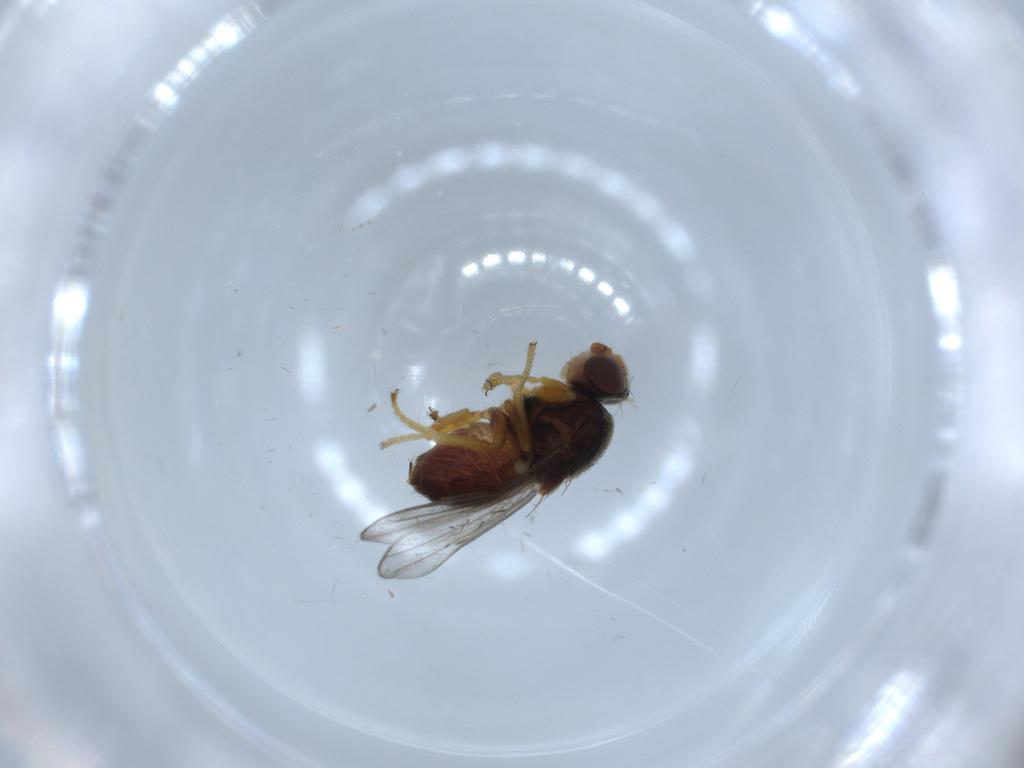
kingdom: Animalia
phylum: Arthropoda
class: Insecta
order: Diptera
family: Chloropidae
